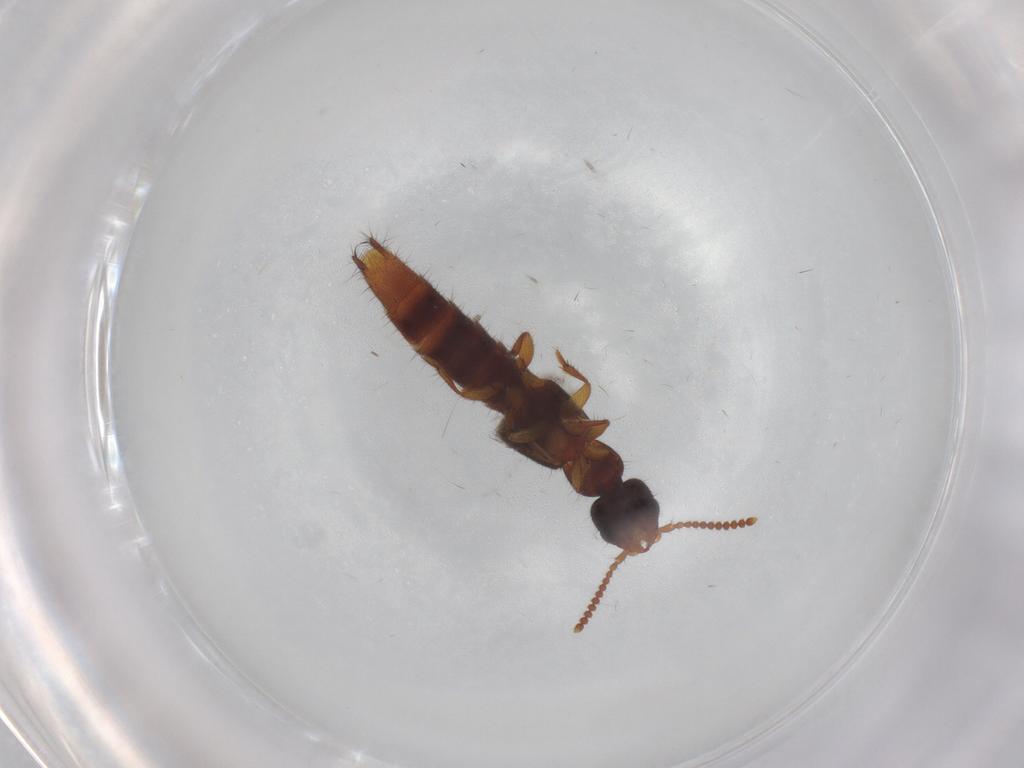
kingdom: Animalia
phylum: Arthropoda
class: Insecta
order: Coleoptera
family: Staphylinidae
